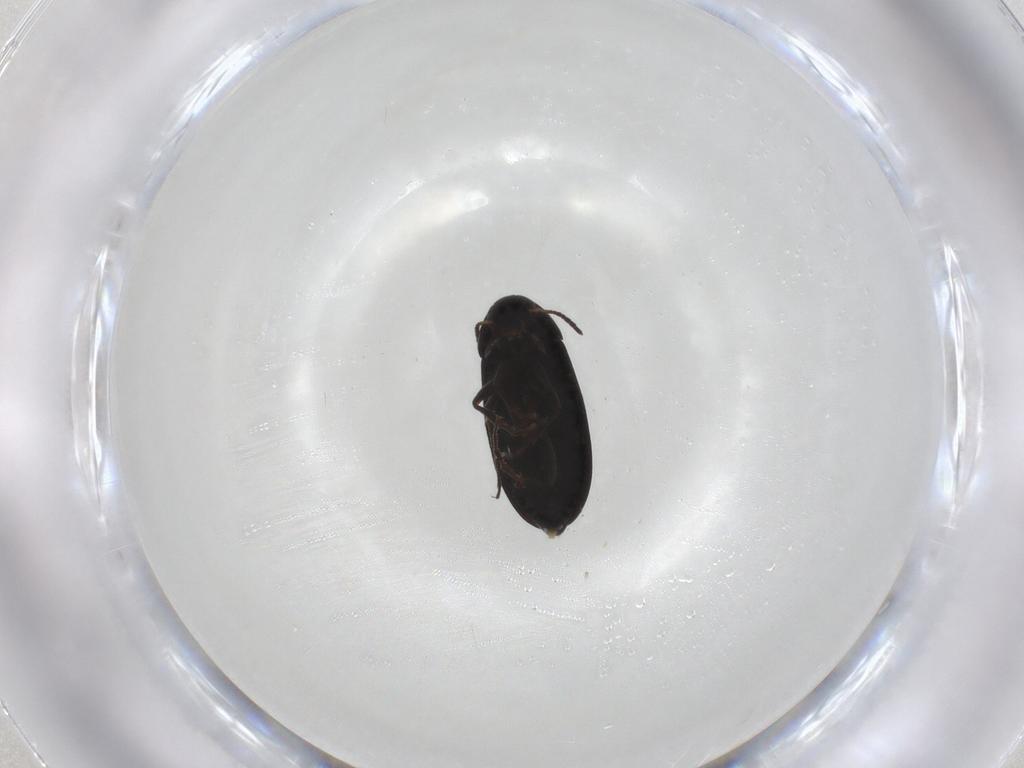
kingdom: Animalia
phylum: Arthropoda
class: Insecta
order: Coleoptera
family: Scraptiidae
